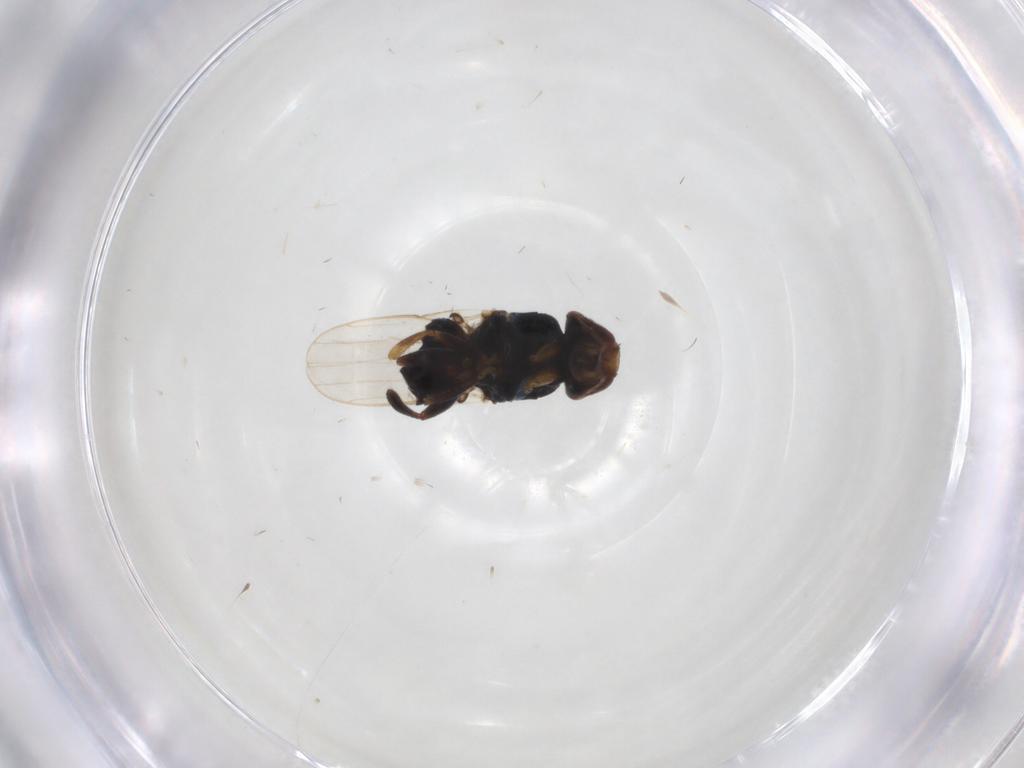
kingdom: Animalia
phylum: Arthropoda
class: Insecta
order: Diptera
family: Chloropidae
